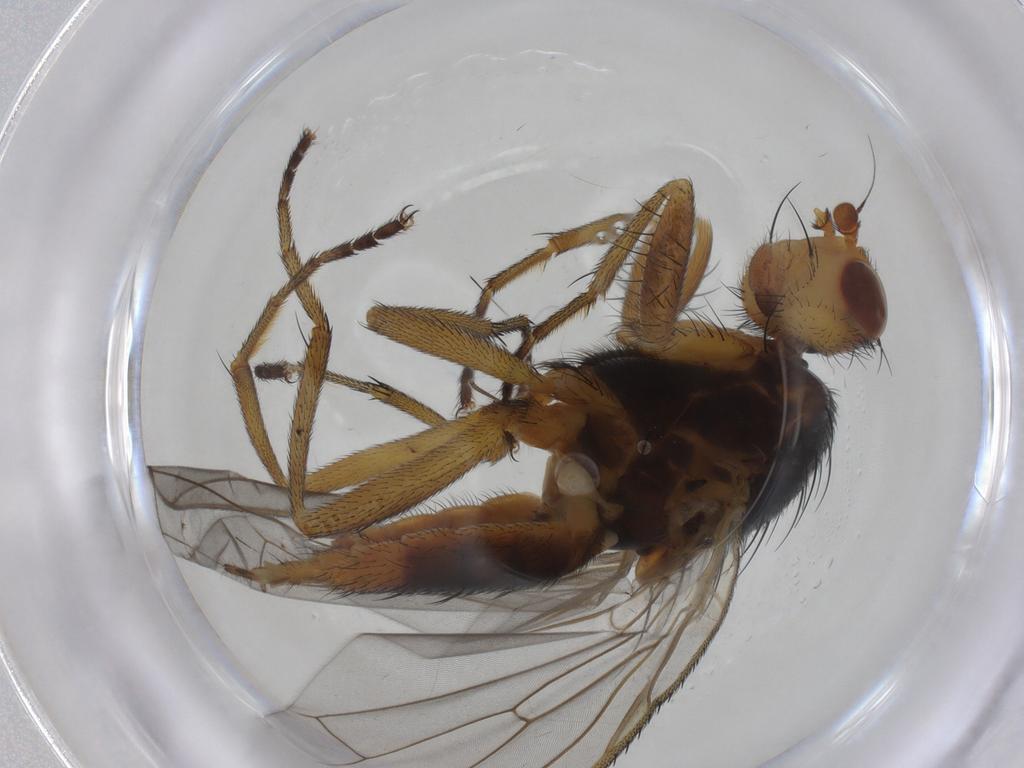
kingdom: Animalia
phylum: Arthropoda
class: Insecta
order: Diptera
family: Heleomyzidae
